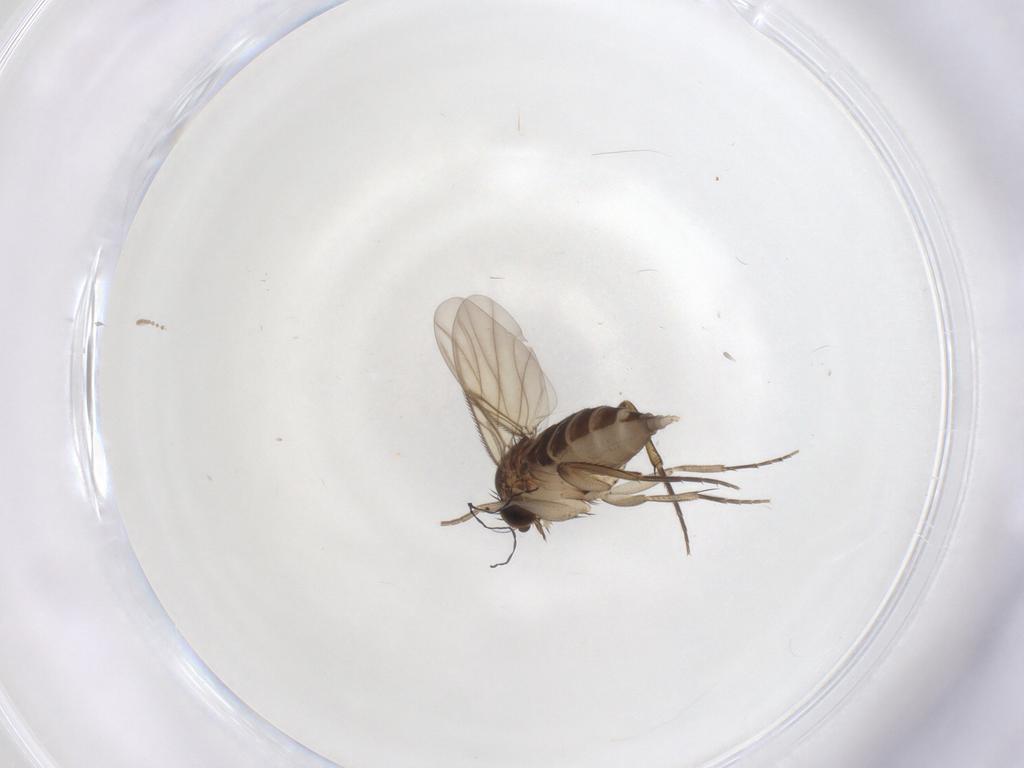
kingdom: Animalia
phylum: Arthropoda
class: Insecta
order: Diptera
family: Phoridae
